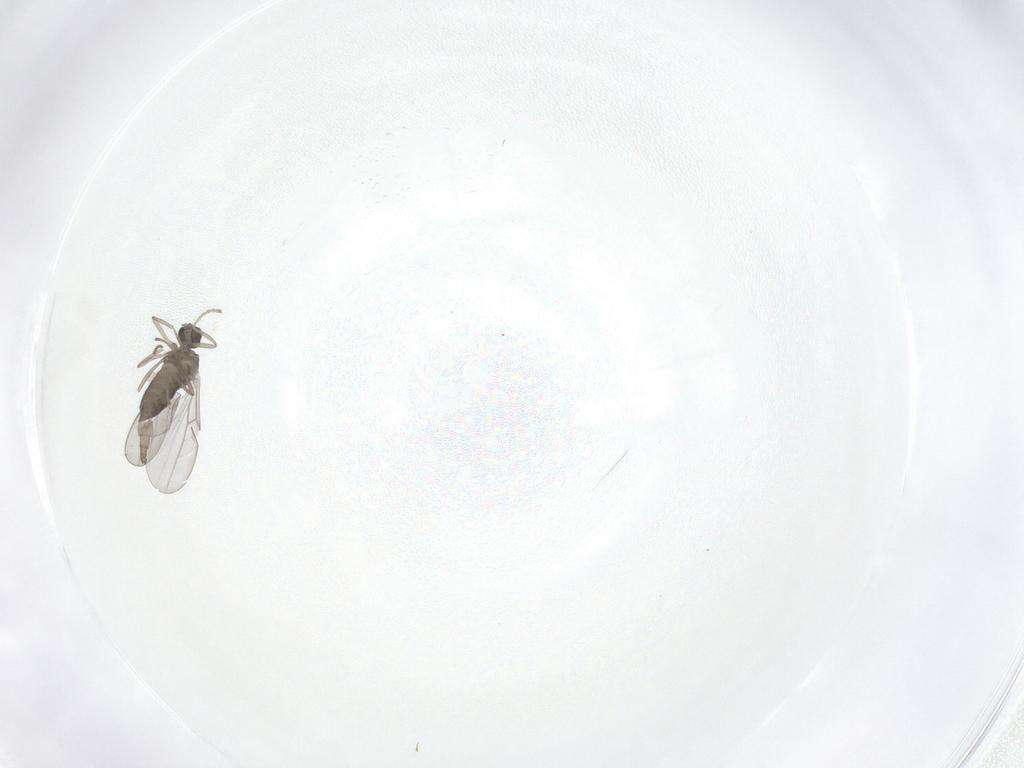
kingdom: Animalia
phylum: Arthropoda
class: Insecta
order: Diptera
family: Cecidomyiidae
